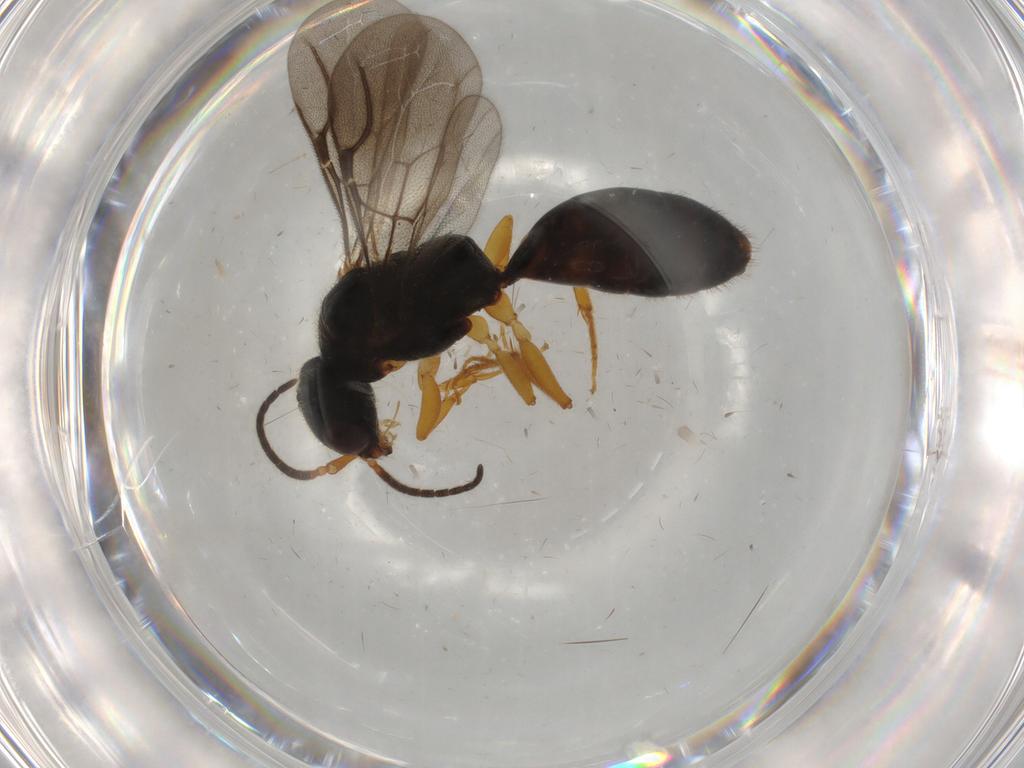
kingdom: Animalia
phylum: Arthropoda
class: Insecta
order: Hymenoptera
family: Bethylidae
